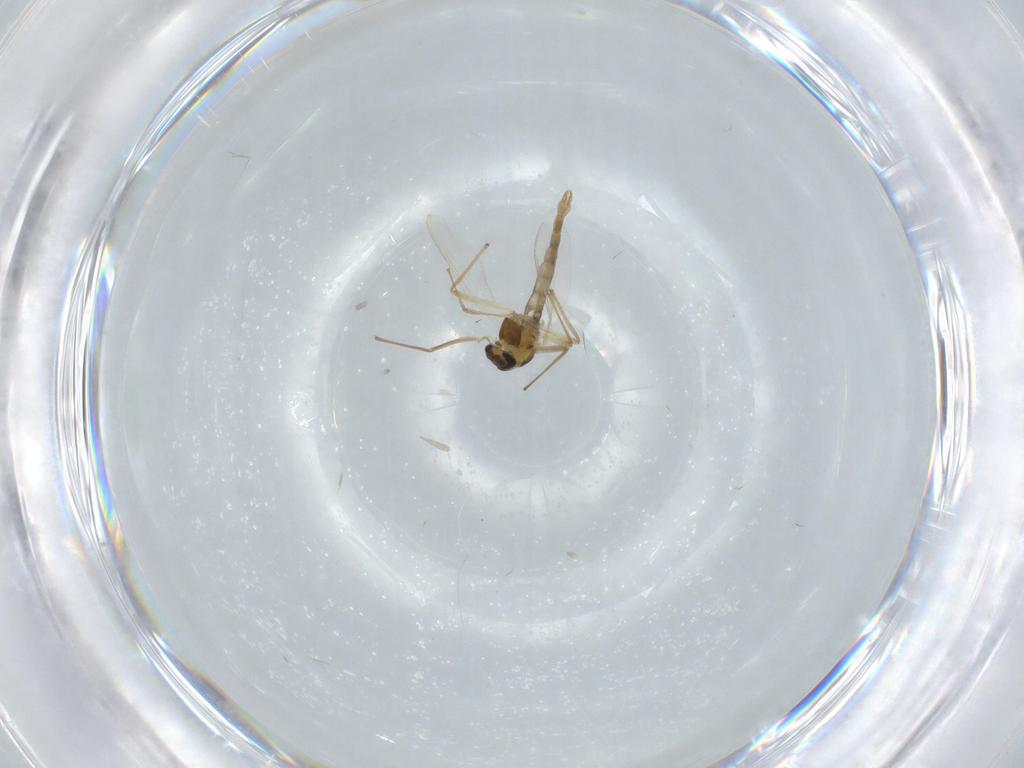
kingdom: Animalia
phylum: Arthropoda
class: Insecta
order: Diptera
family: Chironomidae
